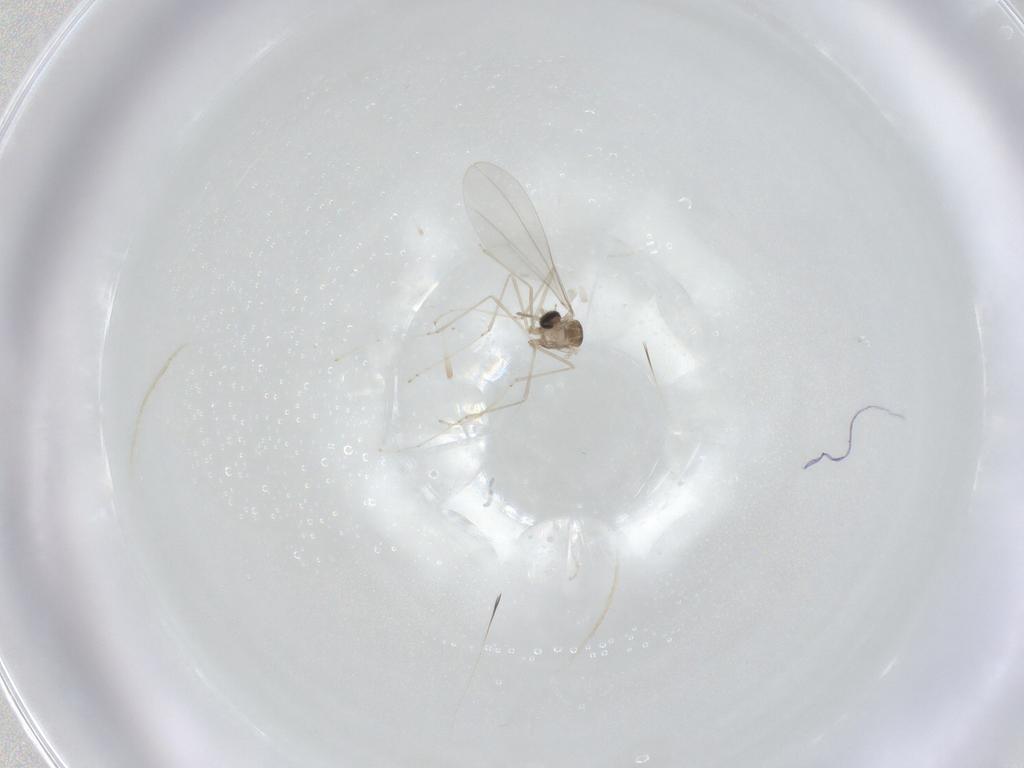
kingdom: Animalia
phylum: Arthropoda
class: Insecta
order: Diptera
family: Cecidomyiidae
